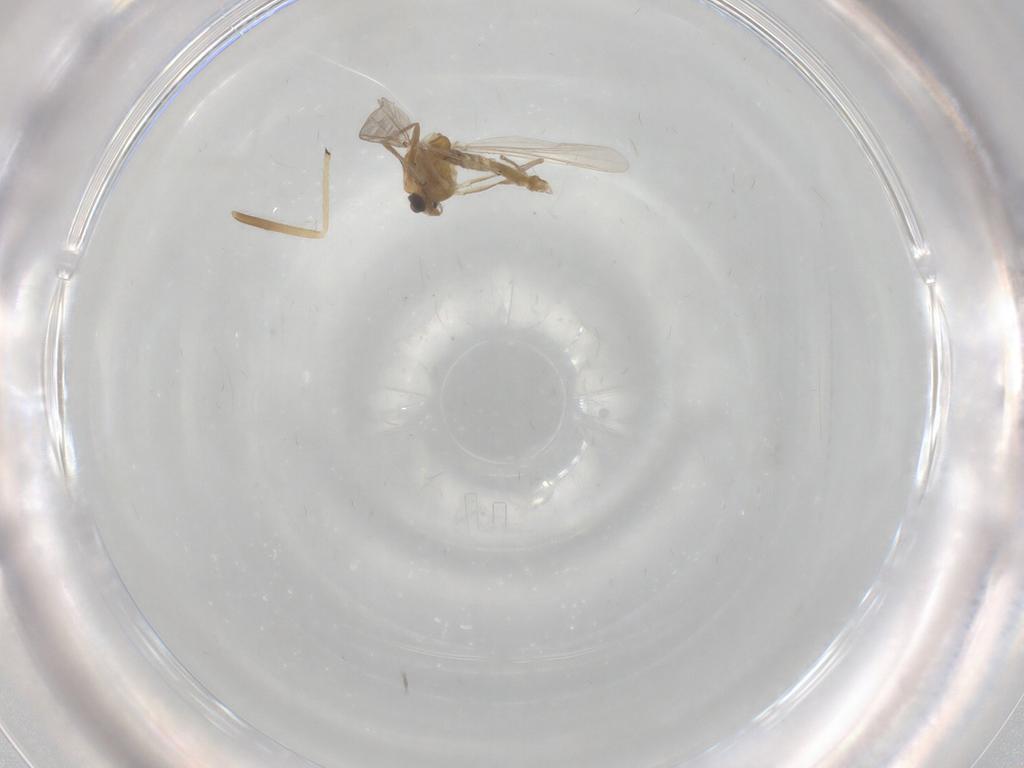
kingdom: Animalia
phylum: Arthropoda
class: Insecta
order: Diptera
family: Chironomidae
